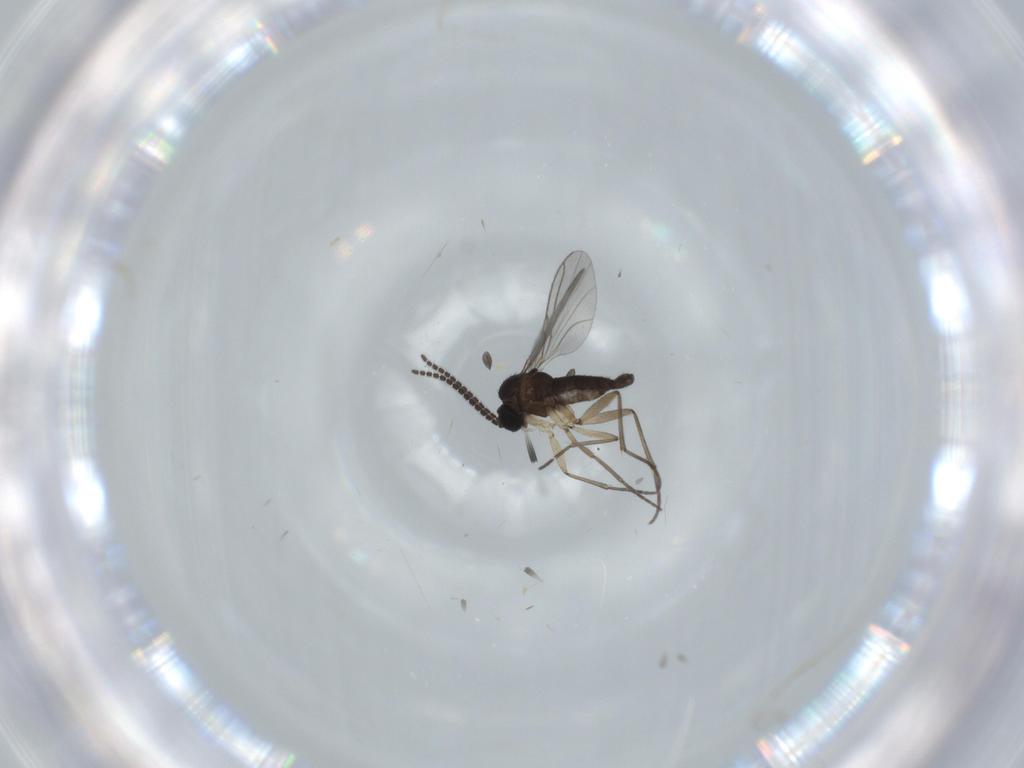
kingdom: Animalia
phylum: Arthropoda
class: Insecta
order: Diptera
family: Sciaridae
